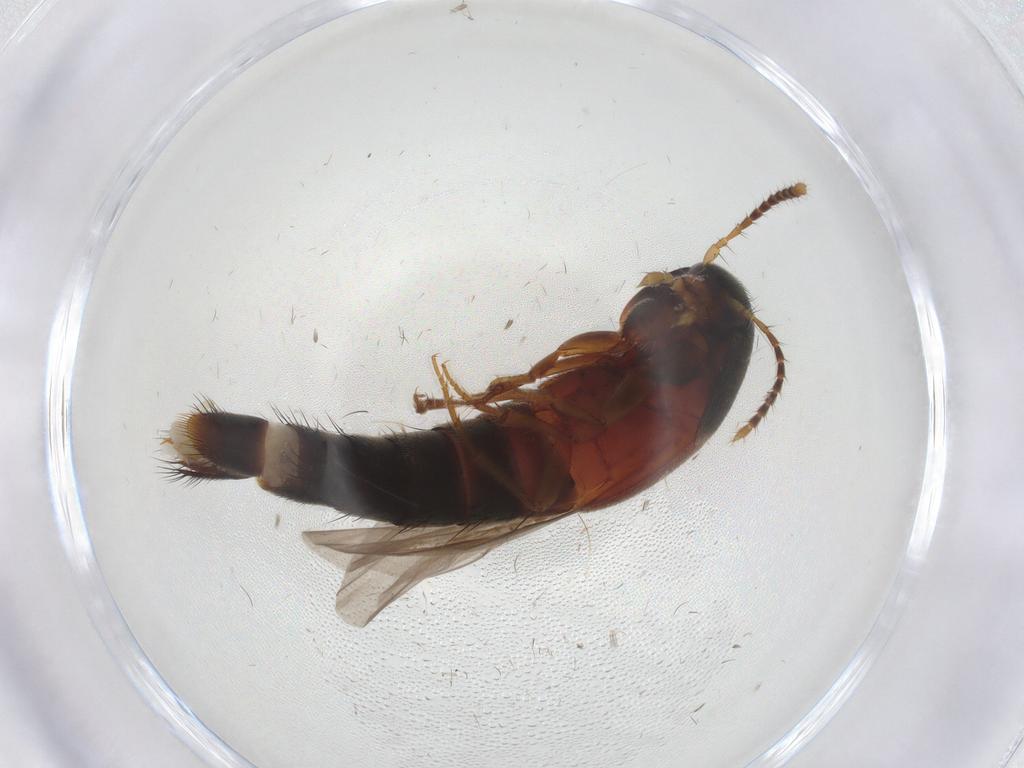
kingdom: Animalia
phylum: Arthropoda
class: Insecta
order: Coleoptera
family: Staphylinidae
